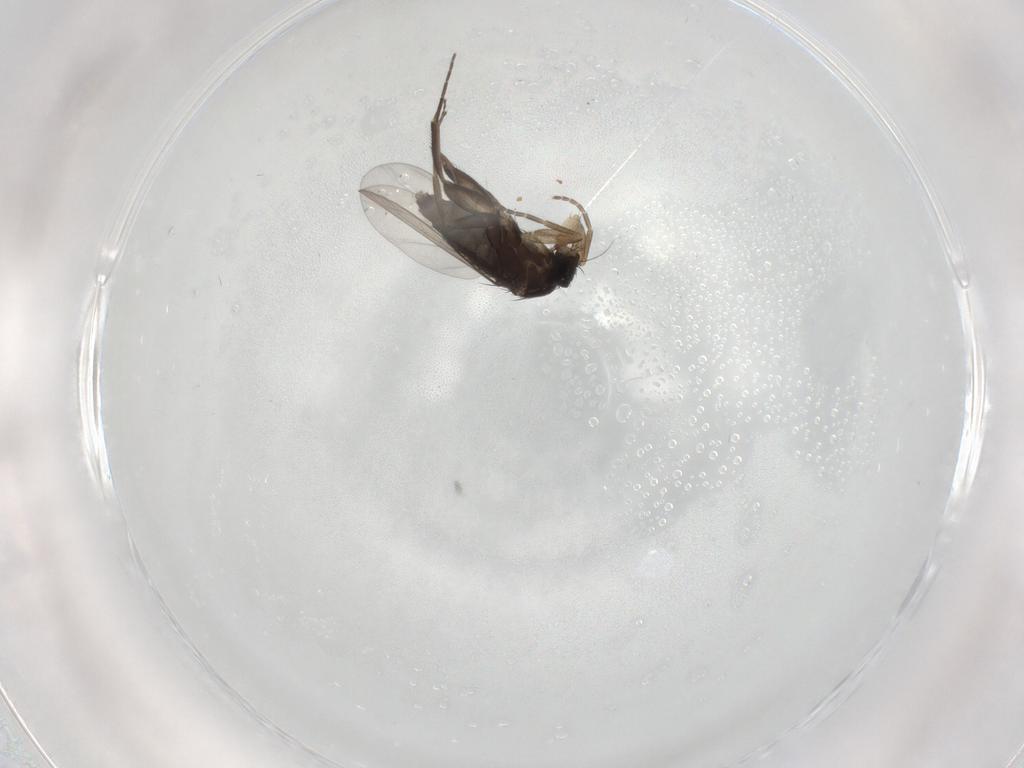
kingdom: Animalia
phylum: Arthropoda
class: Insecta
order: Diptera
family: Phoridae
